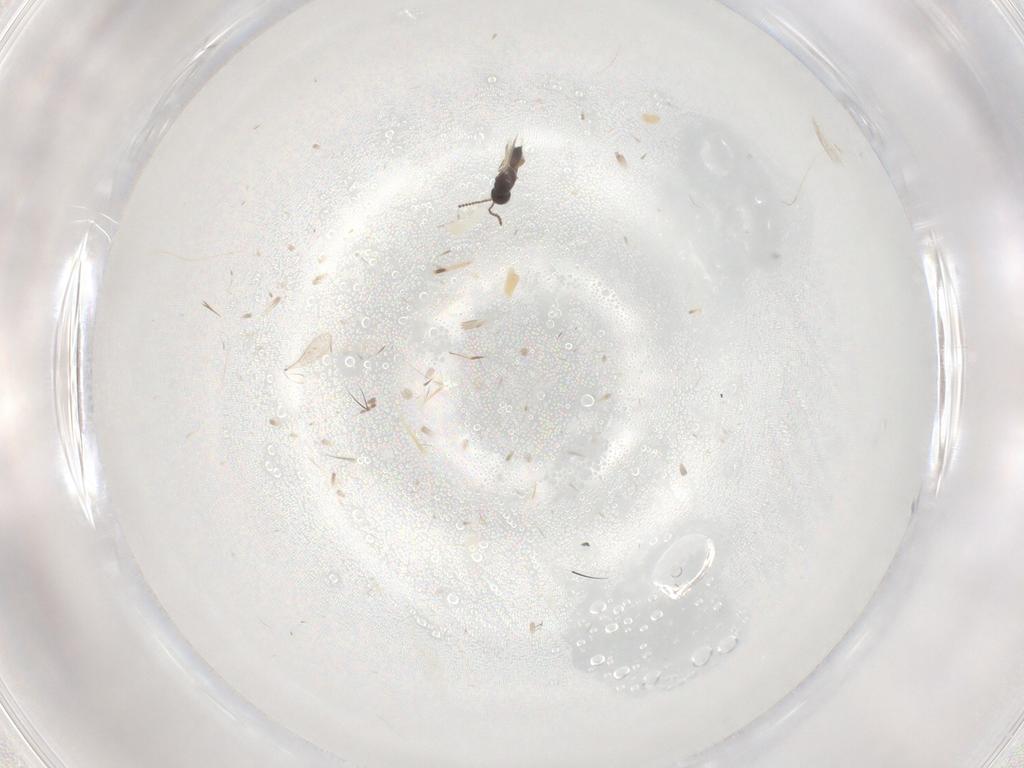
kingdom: Animalia
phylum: Arthropoda
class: Insecta
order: Hymenoptera
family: Scelionidae
